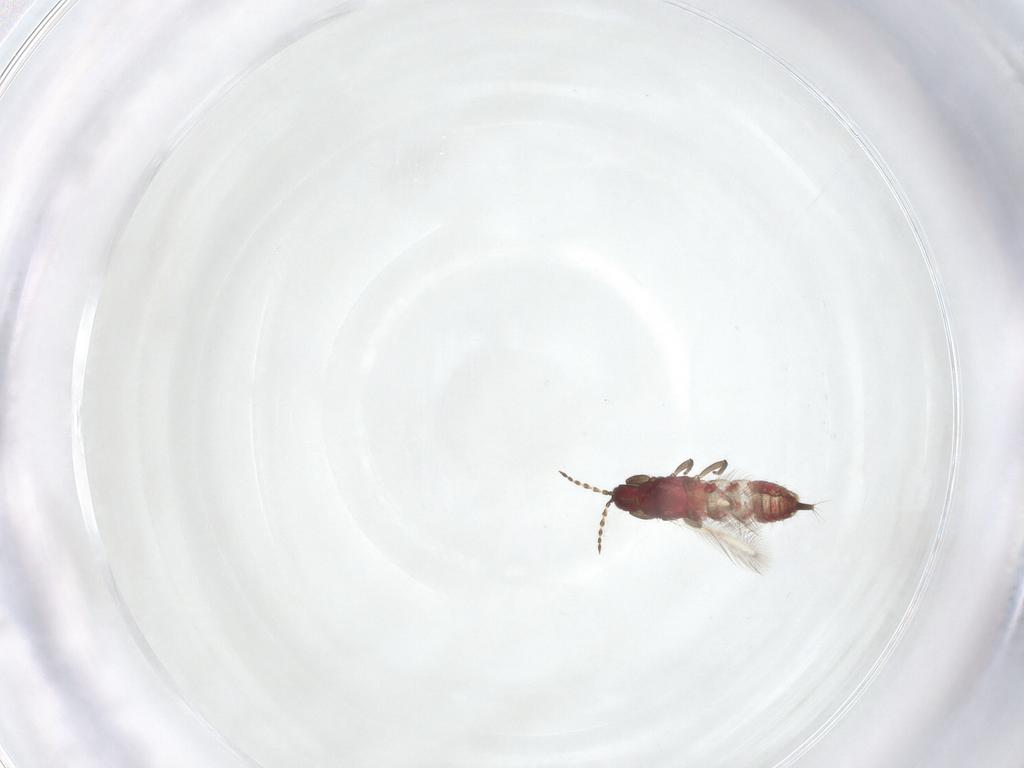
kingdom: Animalia
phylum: Arthropoda
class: Insecta
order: Thysanoptera
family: Phlaeothripidae
